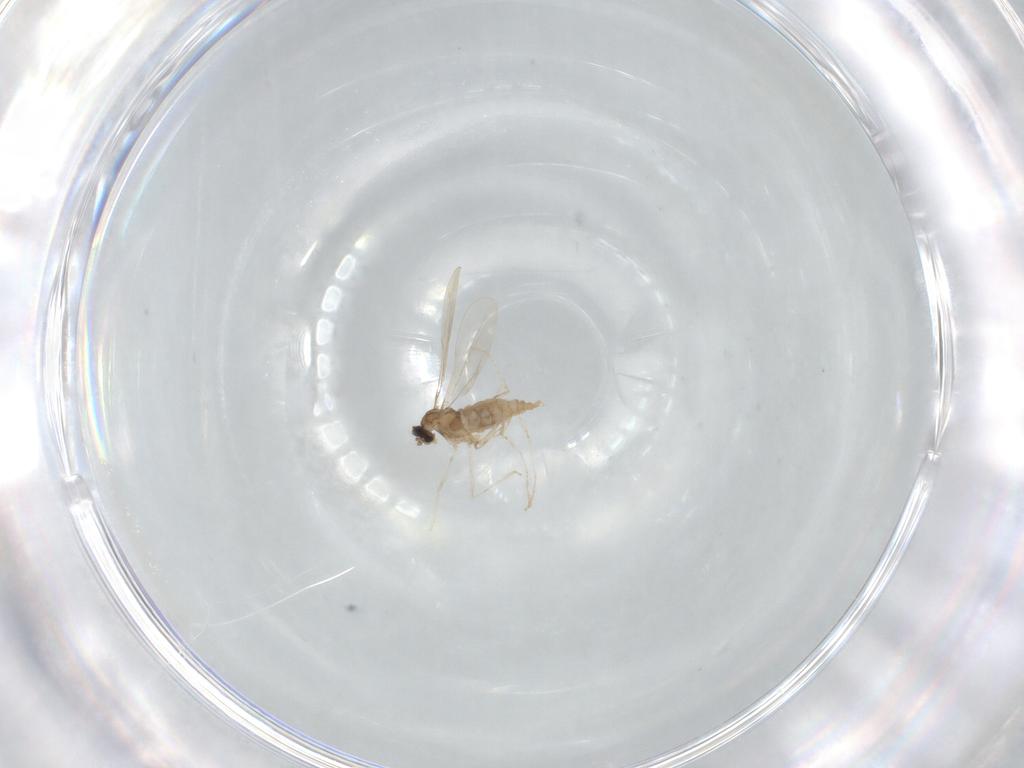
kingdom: Animalia
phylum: Arthropoda
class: Insecta
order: Diptera
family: Cecidomyiidae
